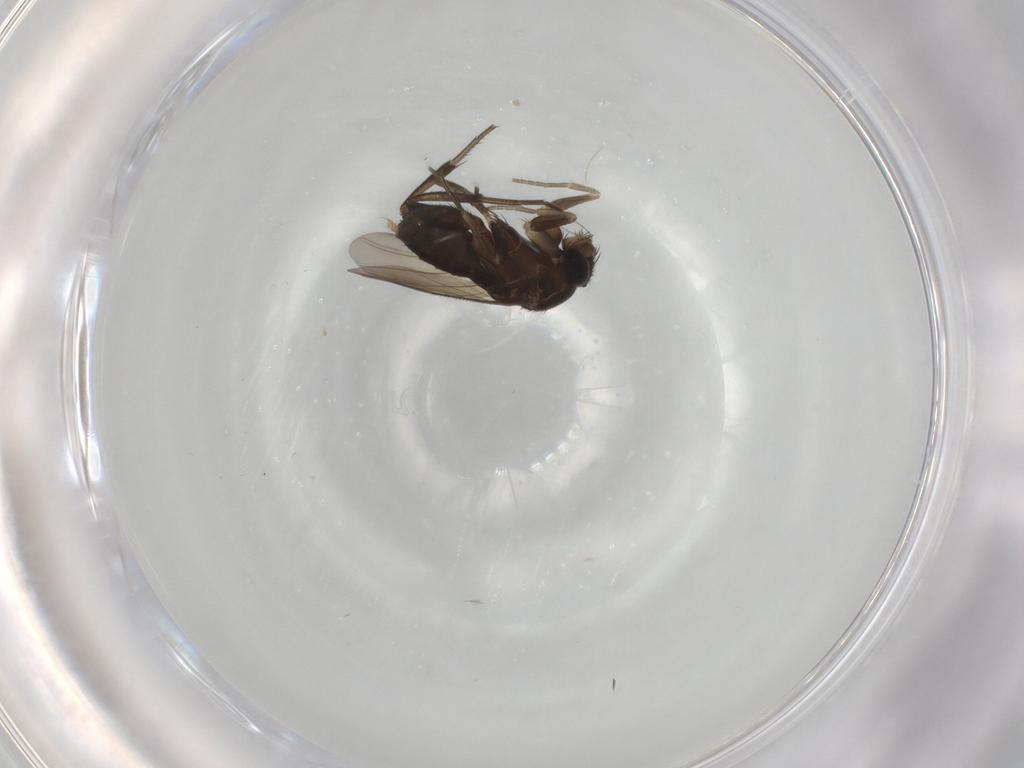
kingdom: Animalia
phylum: Arthropoda
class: Insecta
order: Diptera
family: Phoridae
